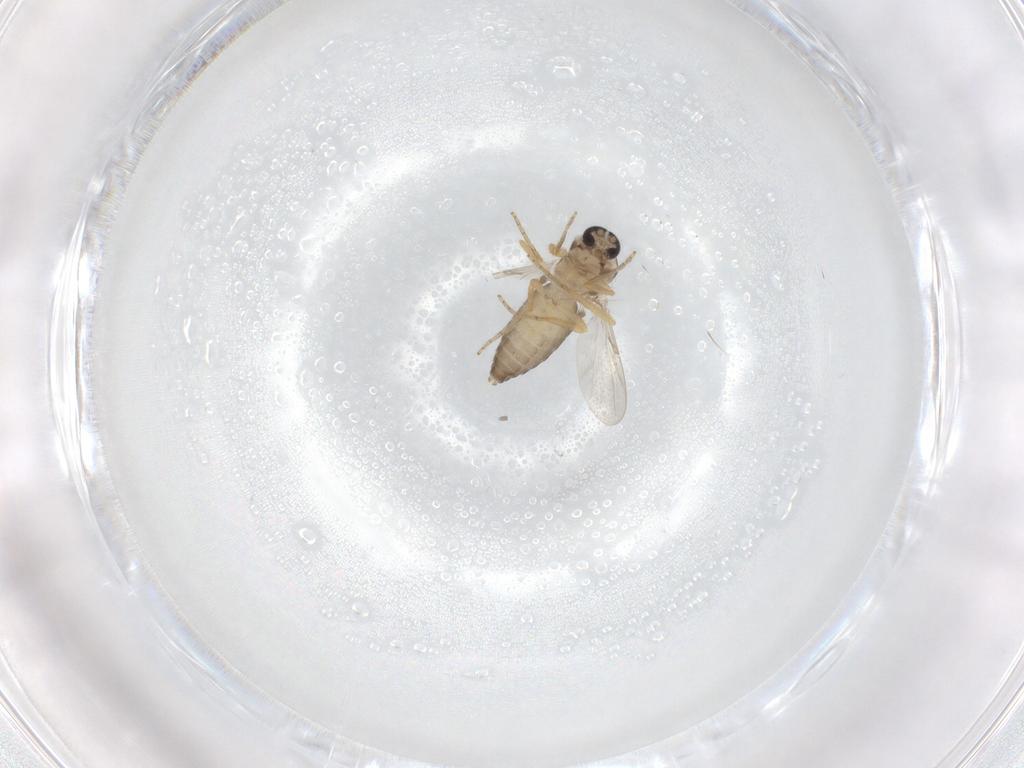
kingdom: Animalia
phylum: Arthropoda
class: Insecta
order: Diptera
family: Ceratopogonidae
